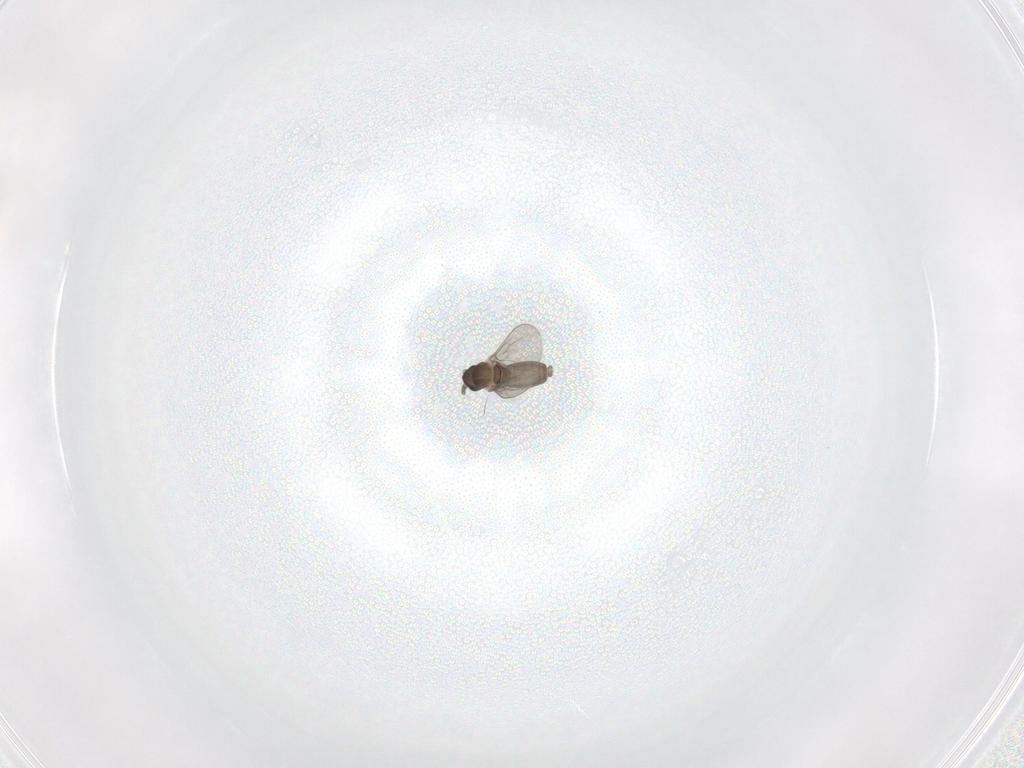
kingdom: Animalia
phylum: Arthropoda
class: Insecta
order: Diptera
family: Cecidomyiidae
